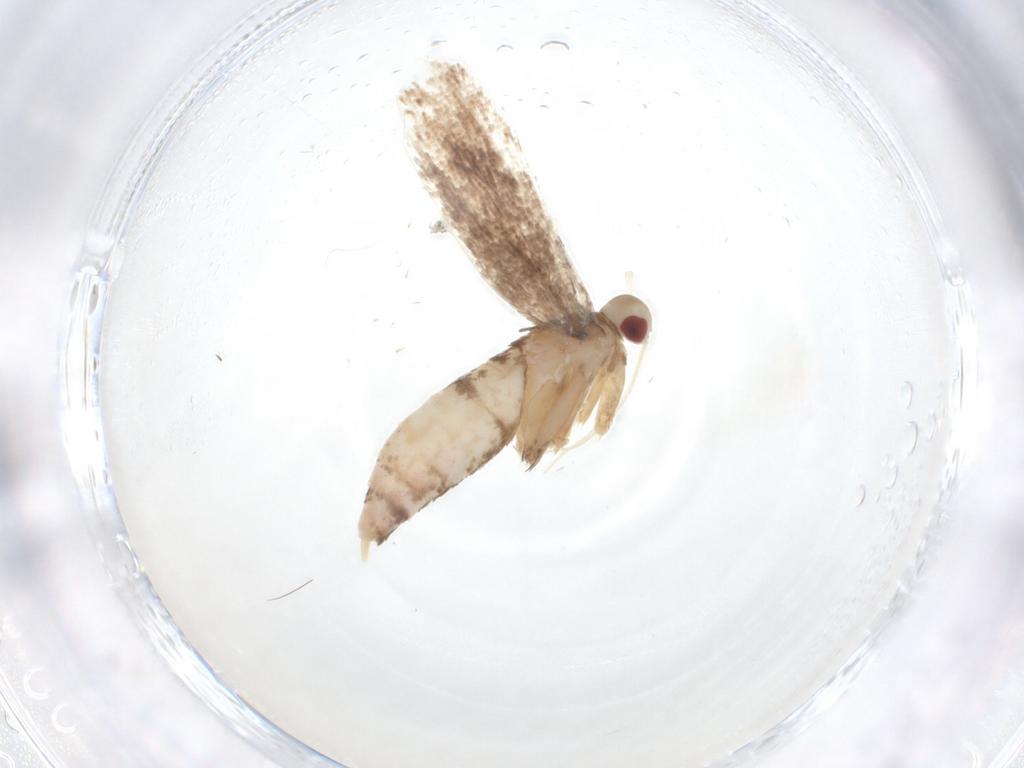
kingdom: Animalia
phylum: Arthropoda
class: Insecta
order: Lepidoptera
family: Cosmopterigidae
